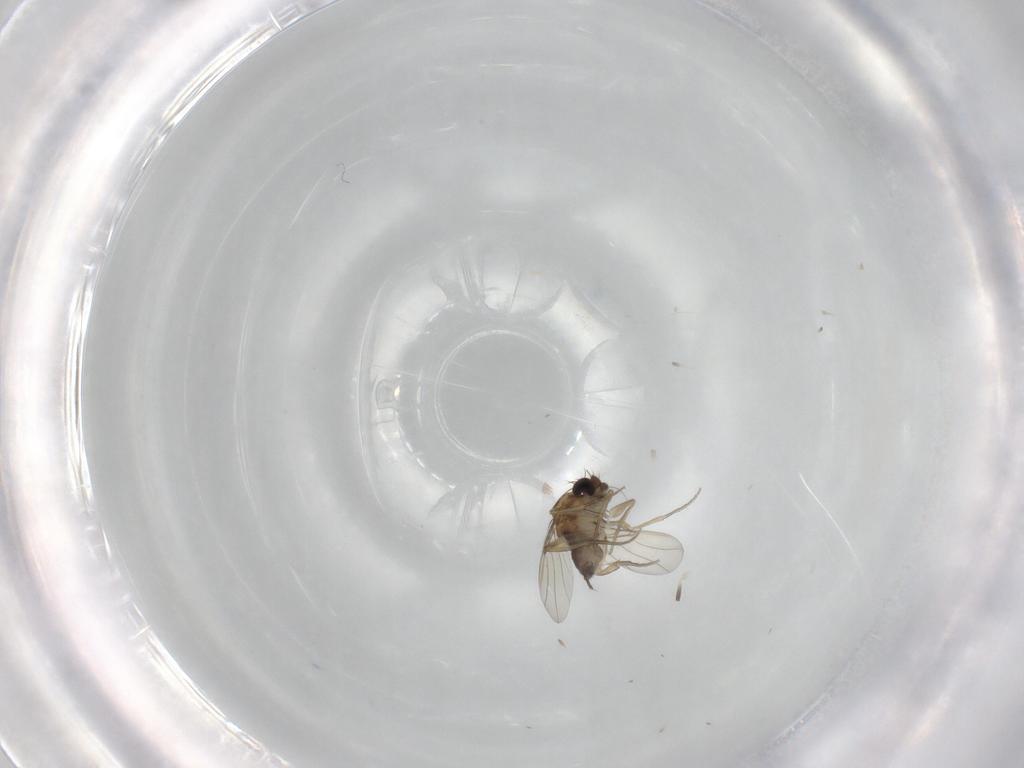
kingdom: Animalia
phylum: Arthropoda
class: Insecta
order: Diptera
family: Phoridae
